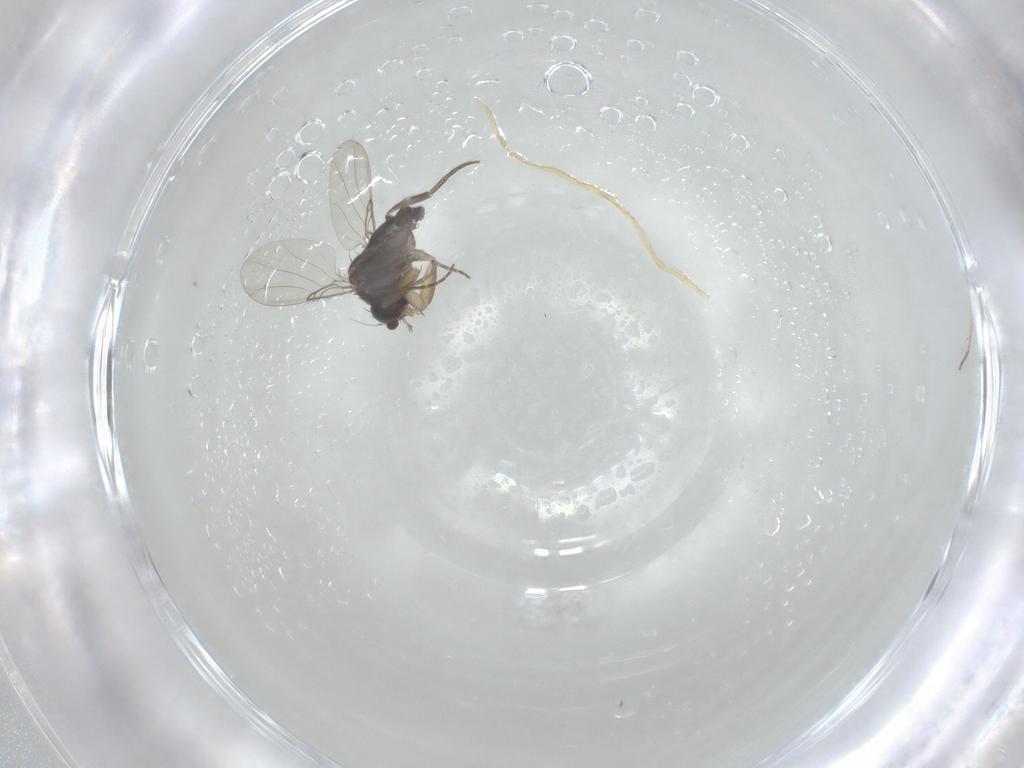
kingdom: Animalia
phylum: Arthropoda
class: Insecta
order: Diptera
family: Phoridae
